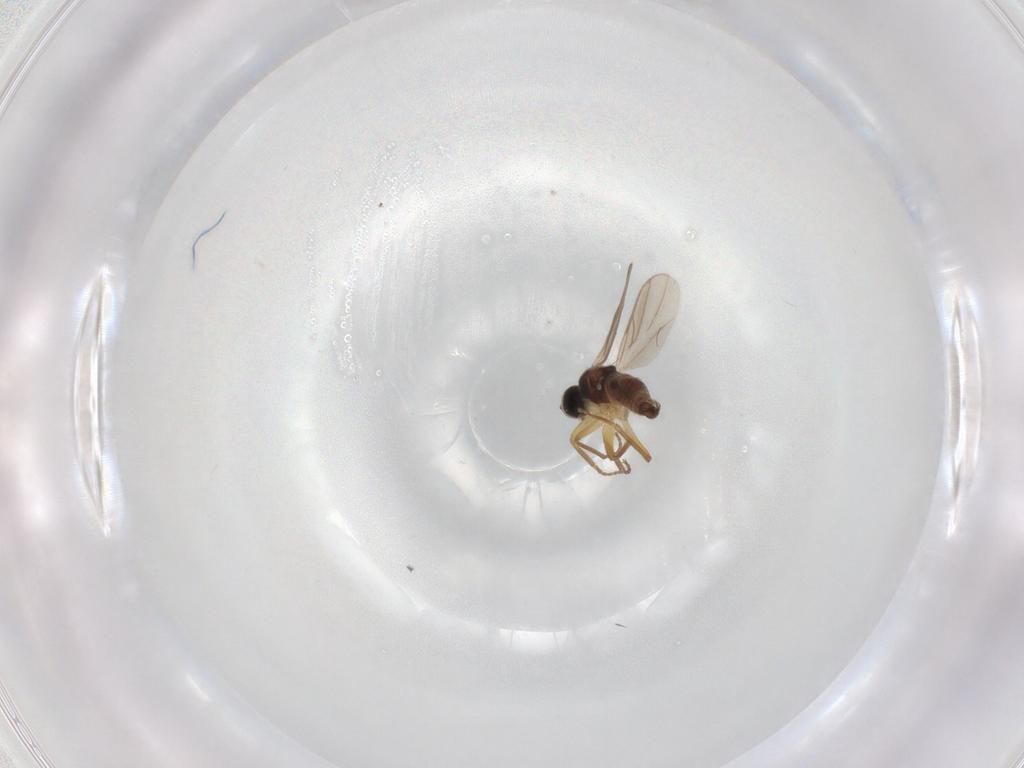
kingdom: Animalia
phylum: Arthropoda
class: Insecta
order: Diptera
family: Hybotidae
